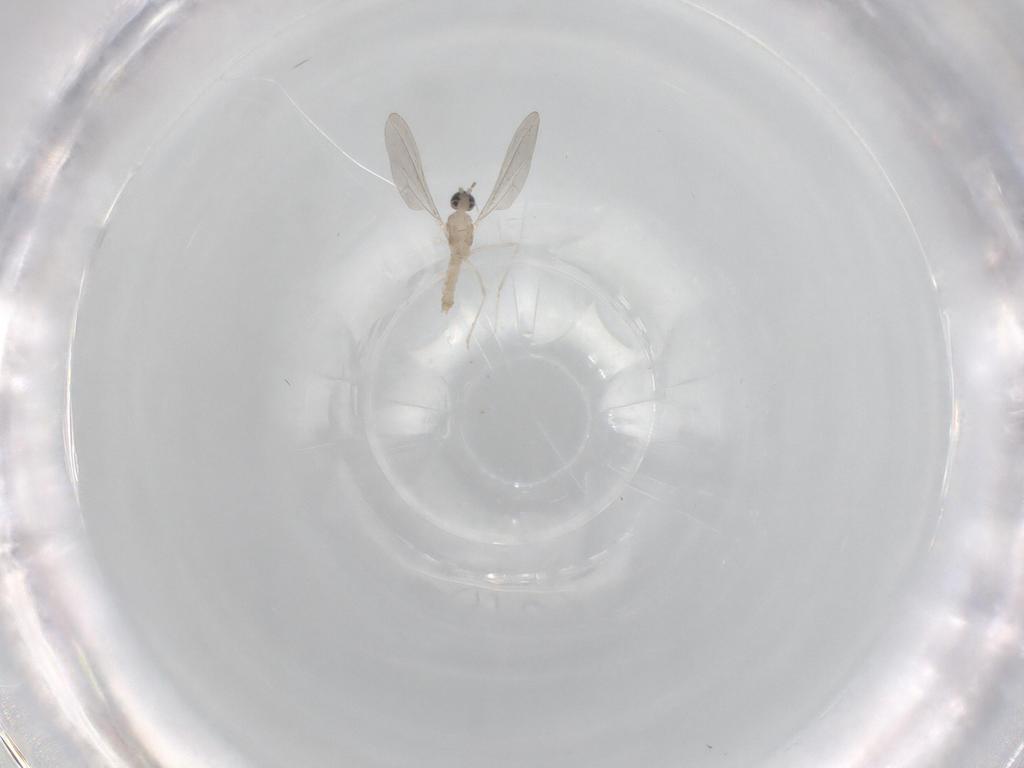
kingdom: Animalia
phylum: Arthropoda
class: Insecta
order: Diptera
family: Cecidomyiidae
